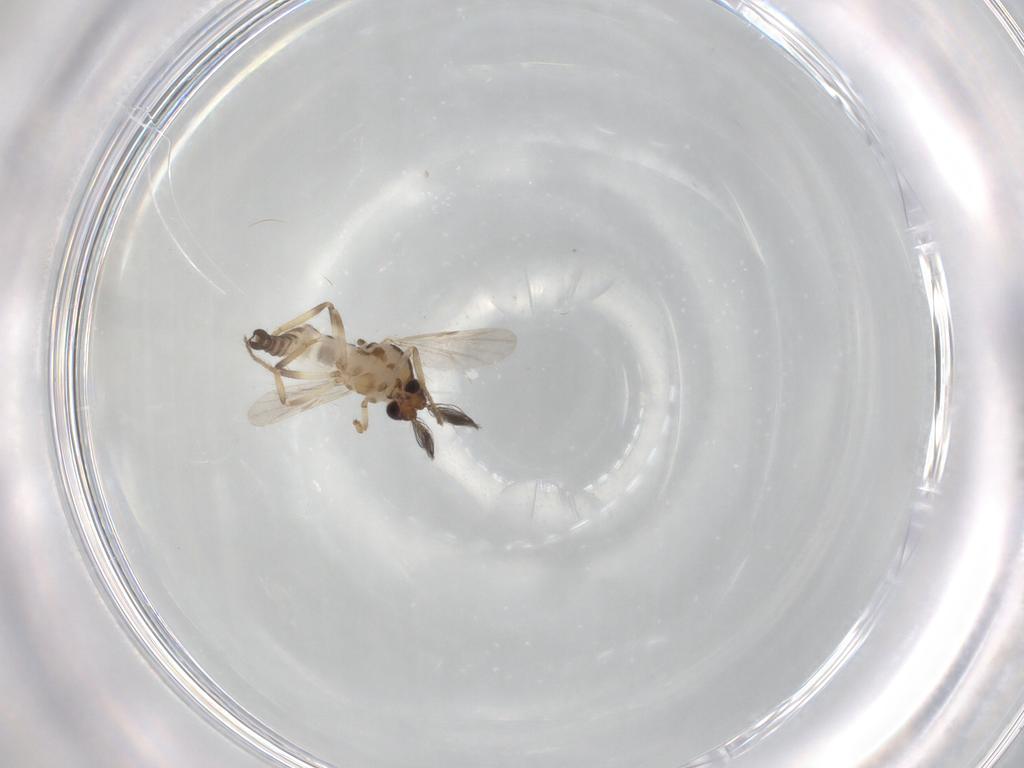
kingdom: Animalia
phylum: Arthropoda
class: Insecta
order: Diptera
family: Ceratopogonidae
